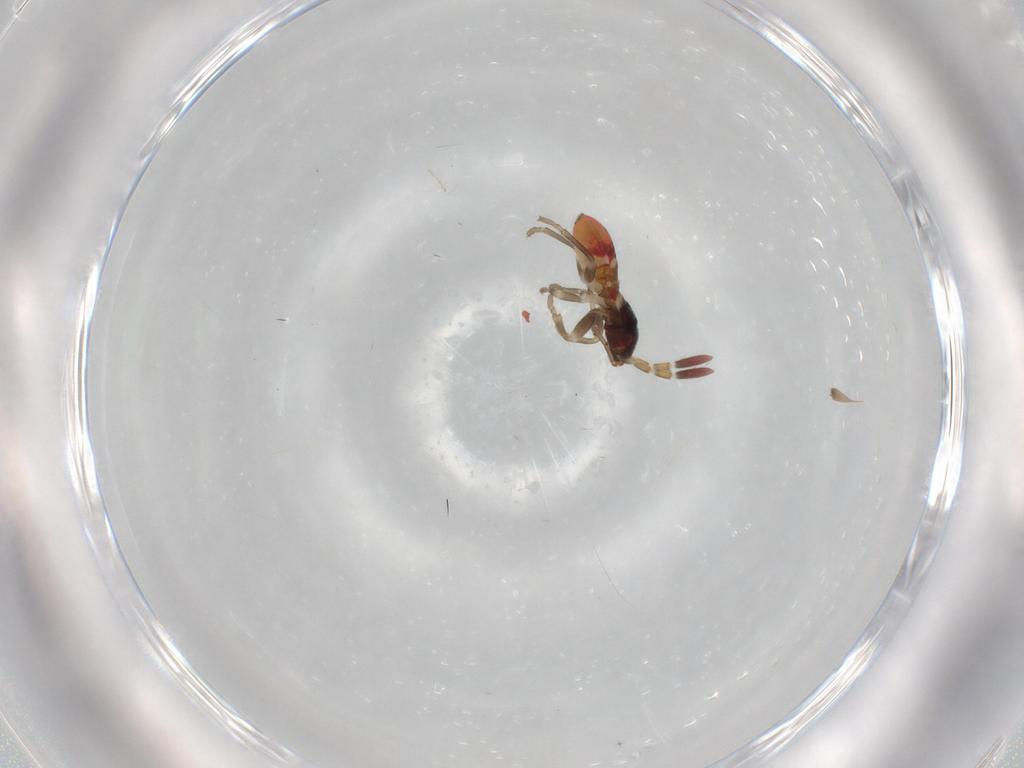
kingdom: Animalia
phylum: Arthropoda
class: Insecta
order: Hemiptera
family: Rhyparochromidae
